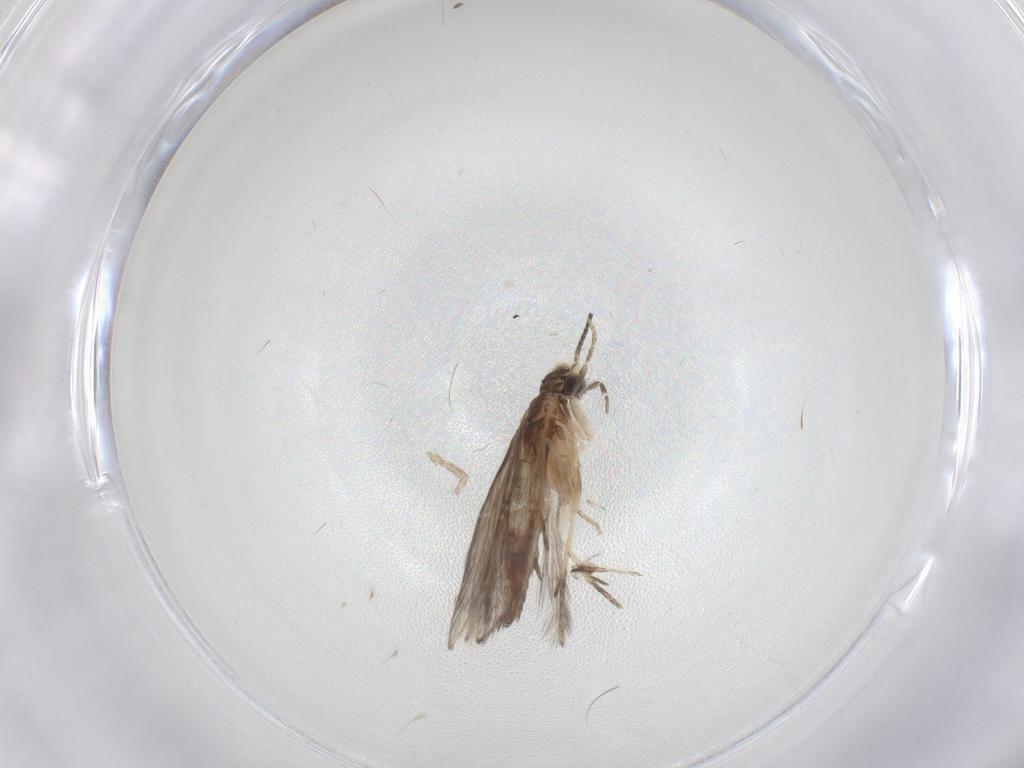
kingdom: Animalia
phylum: Arthropoda
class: Insecta
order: Trichoptera
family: Hydroptilidae
